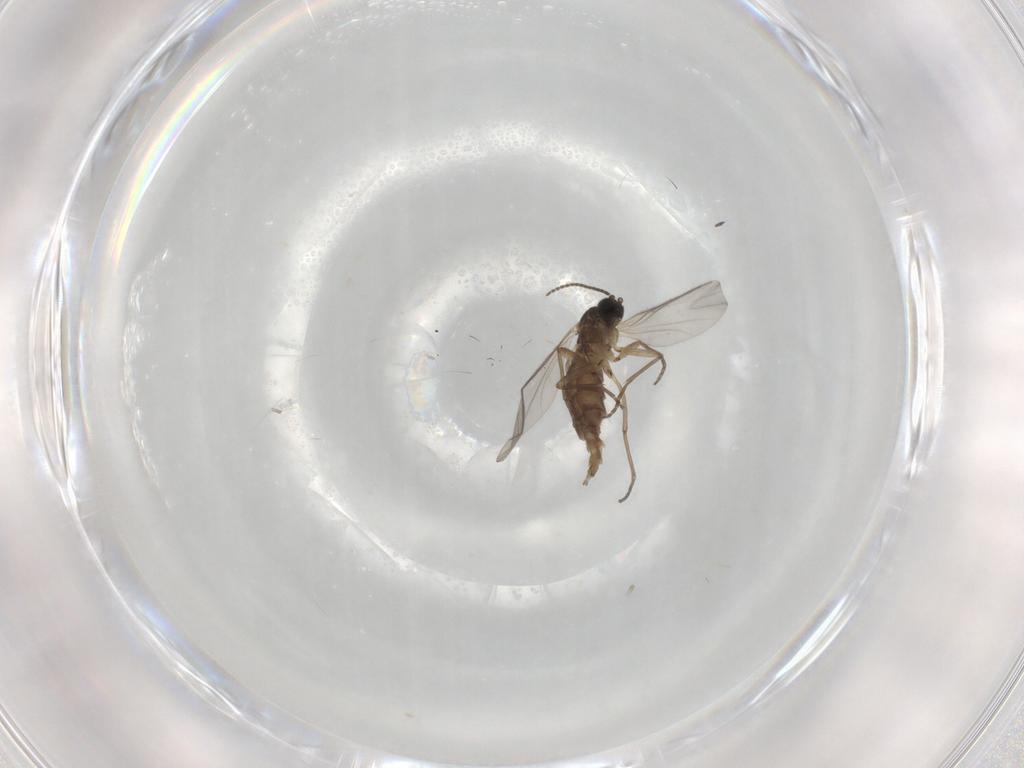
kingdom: Animalia
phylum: Arthropoda
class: Insecta
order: Diptera
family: Sciaridae
